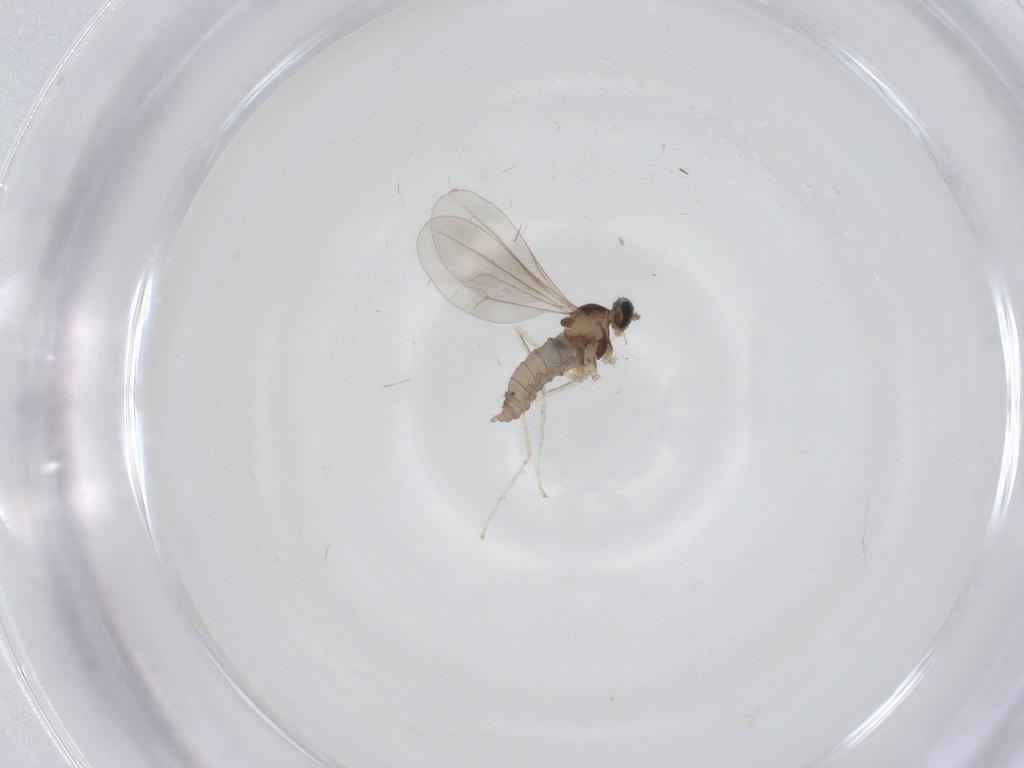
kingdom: Animalia
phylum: Arthropoda
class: Insecta
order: Diptera
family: Cecidomyiidae
